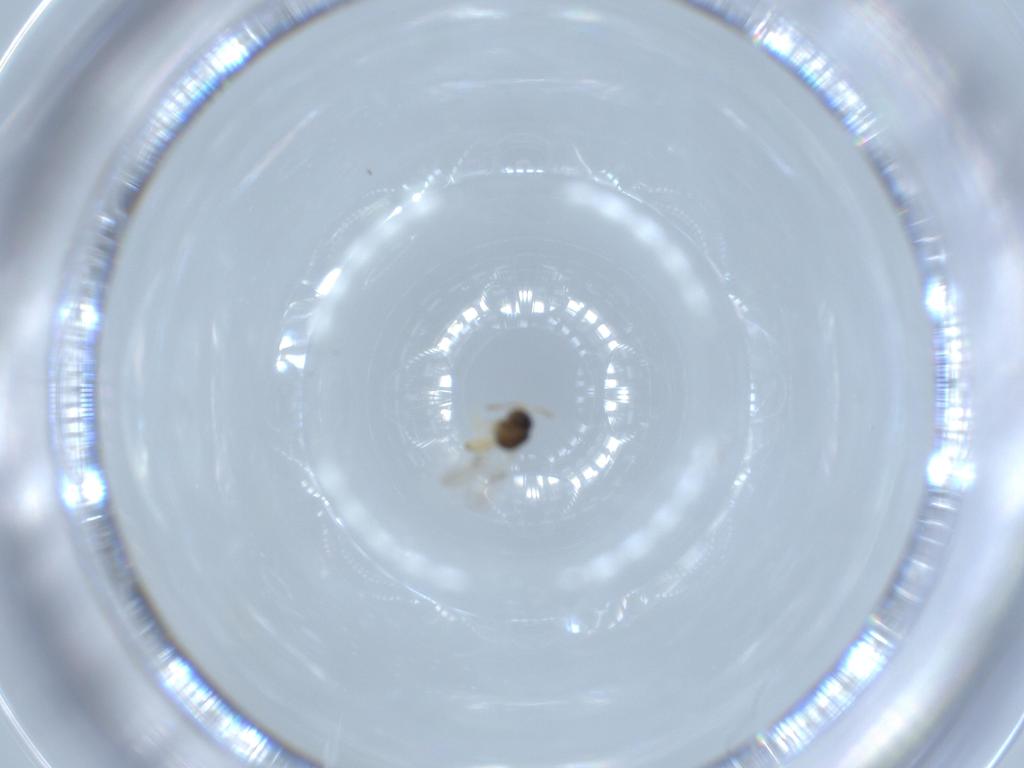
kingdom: Animalia
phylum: Arthropoda
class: Insecta
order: Hymenoptera
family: Scelionidae
